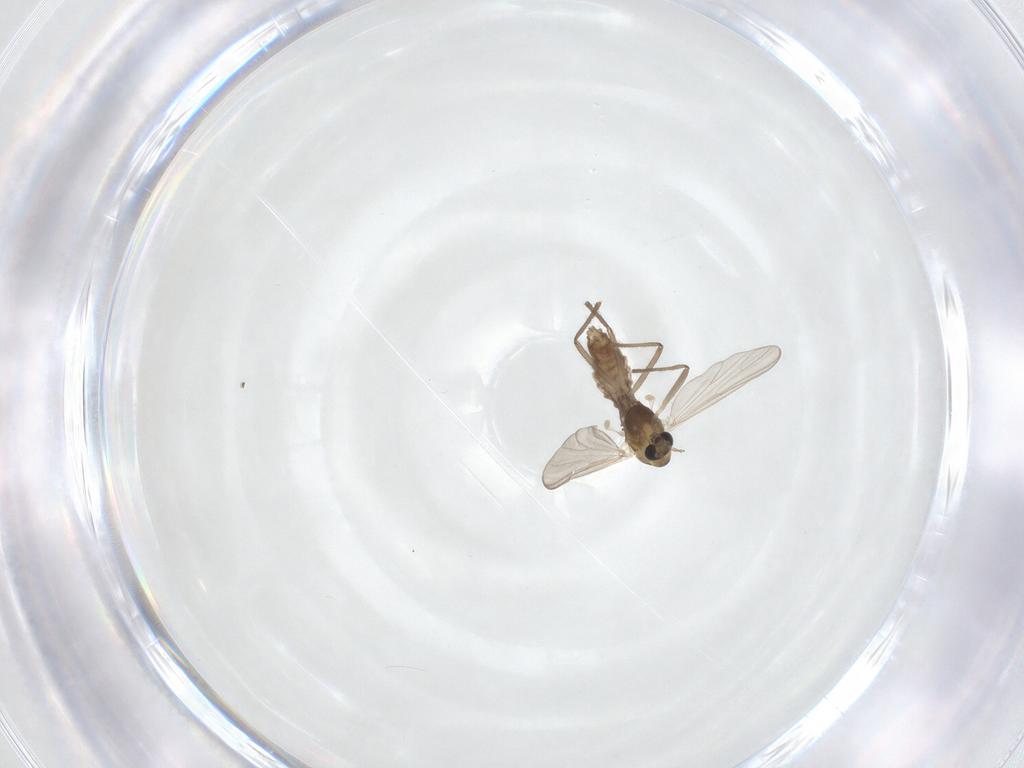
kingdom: Animalia
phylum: Arthropoda
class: Insecta
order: Diptera
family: Chironomidae
